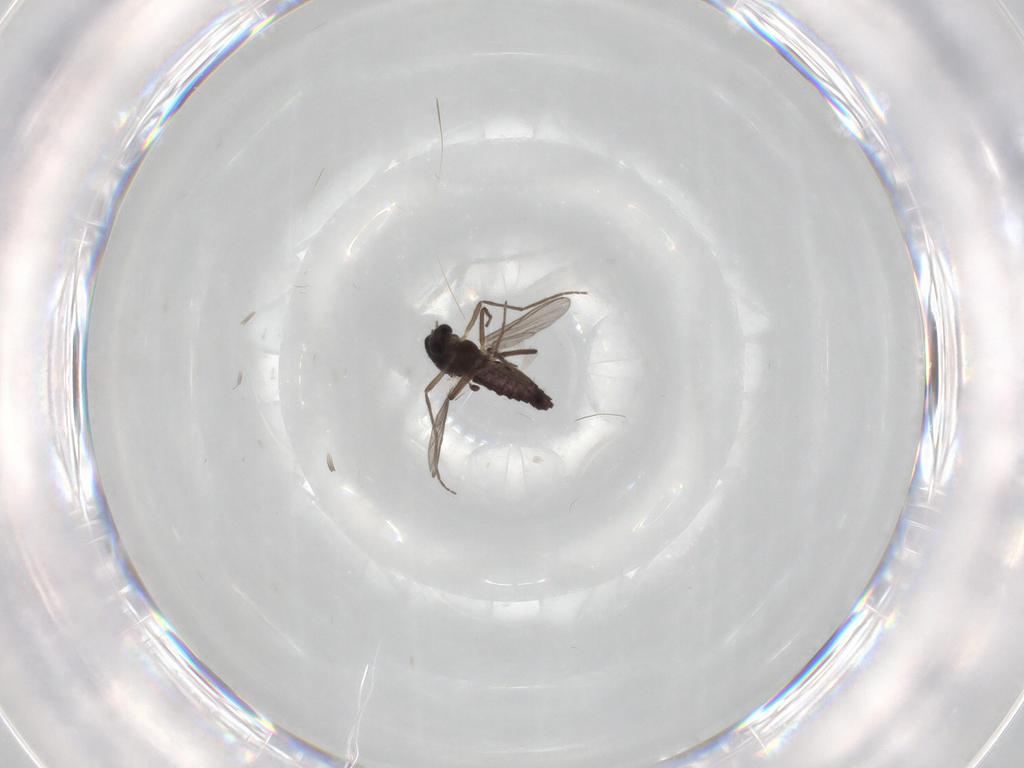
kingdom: Animalia
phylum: Arthropoda
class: Insecta
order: Diptera
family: Chironomidae
